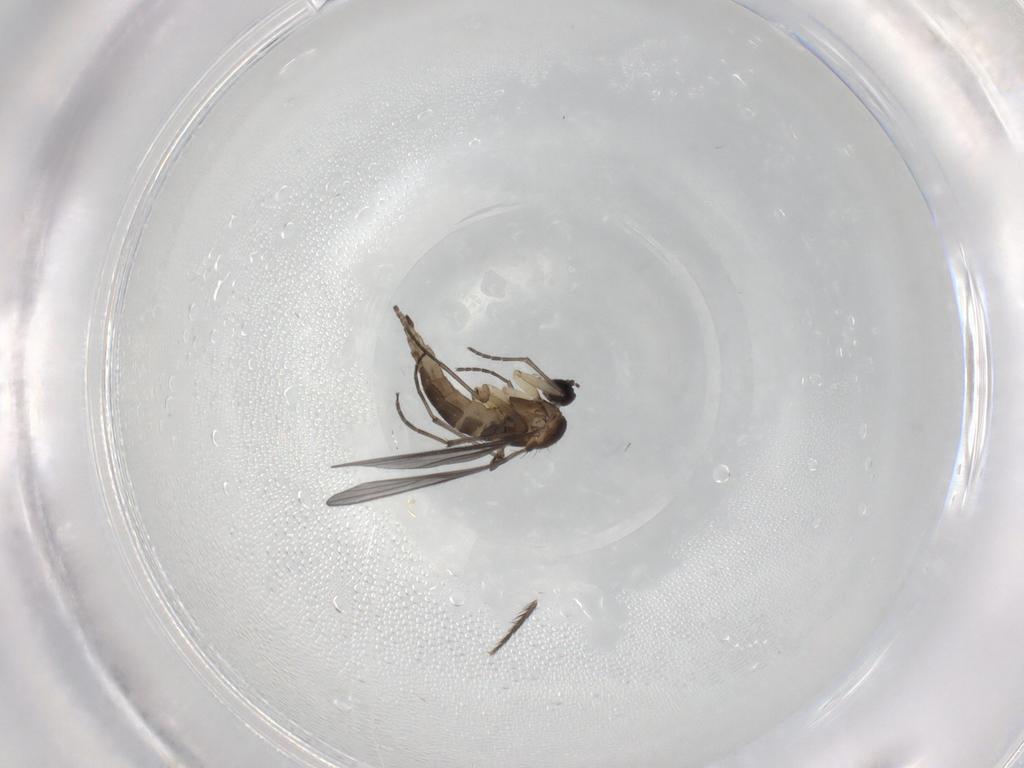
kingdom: Animalia
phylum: Arthropoda
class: Insecta
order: Diptera
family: Sciaridae
